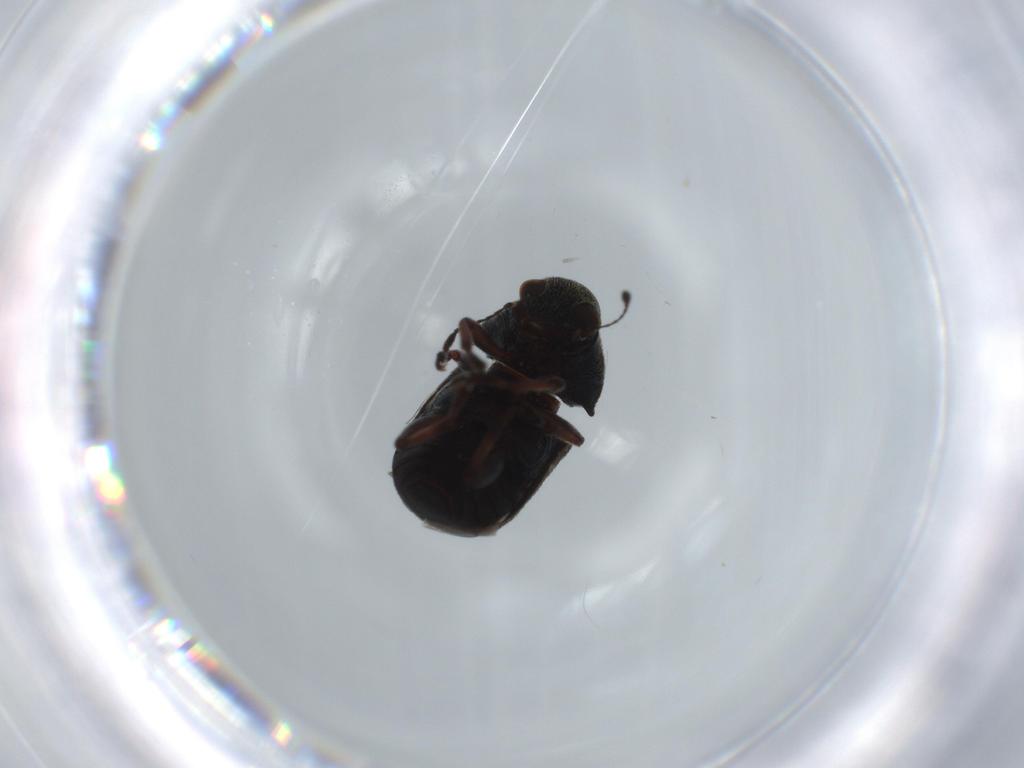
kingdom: Animalia
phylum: Arthropoda
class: Insecta
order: Coleoptera
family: Anthribidae
